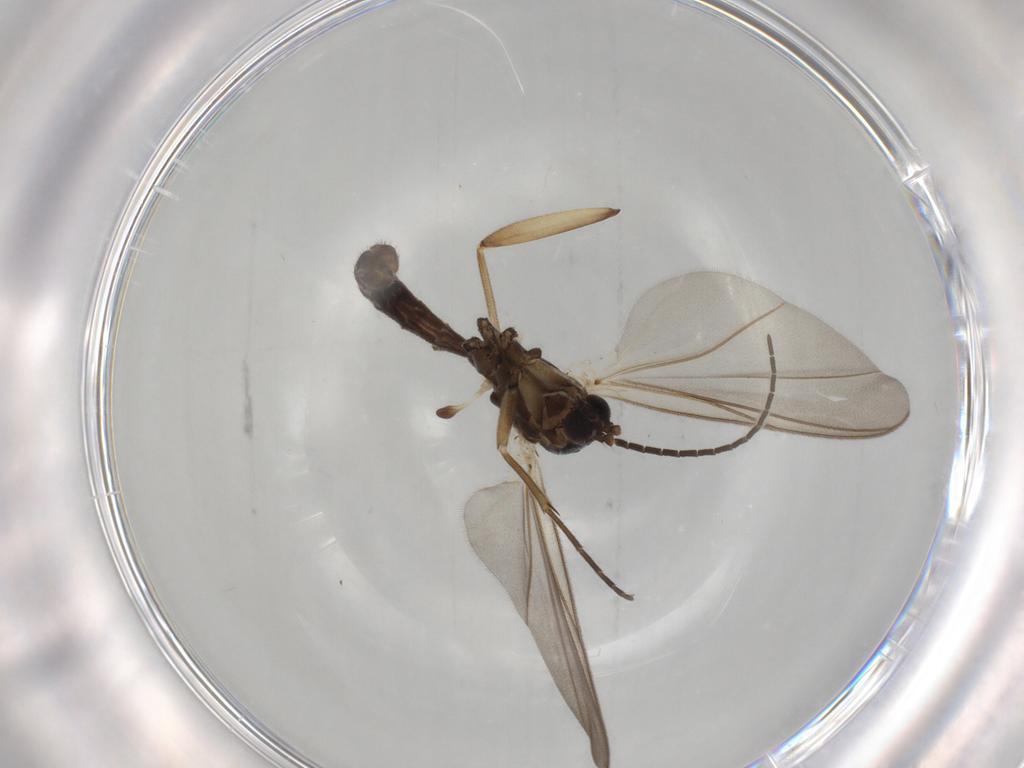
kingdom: Animalia
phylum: Arthropoda
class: Insecta
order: Diptera
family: Mycetophilidae
